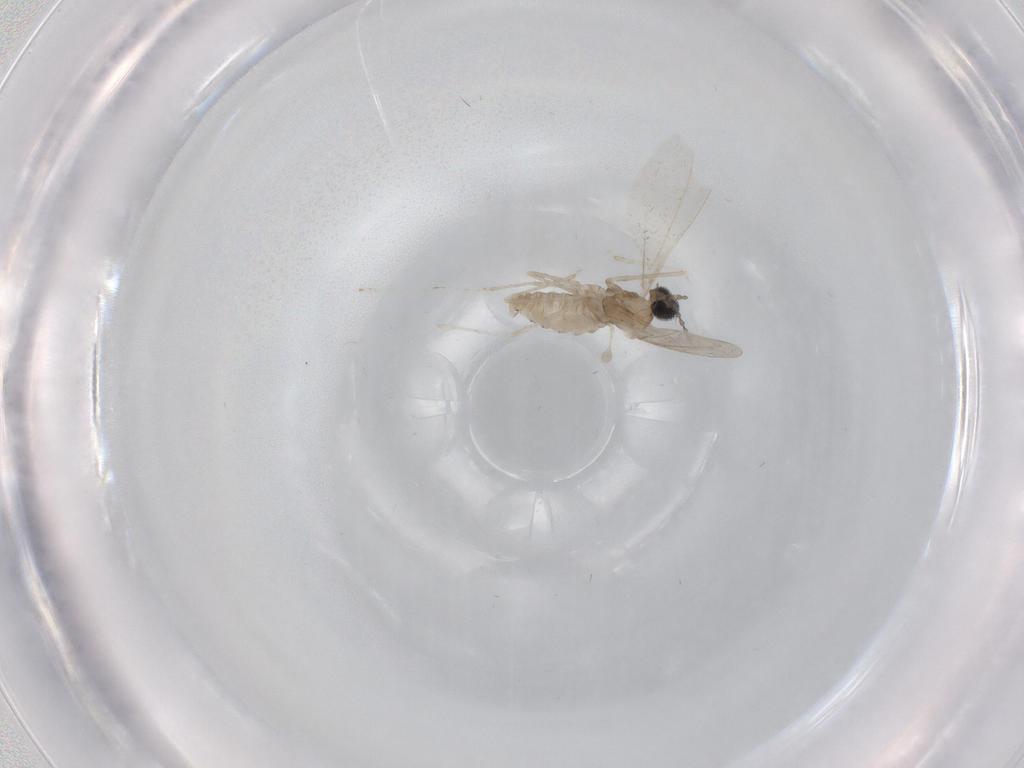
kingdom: Animalia
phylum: Arthropoda
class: Insecta
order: Diptera
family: Cecidomyiidae
